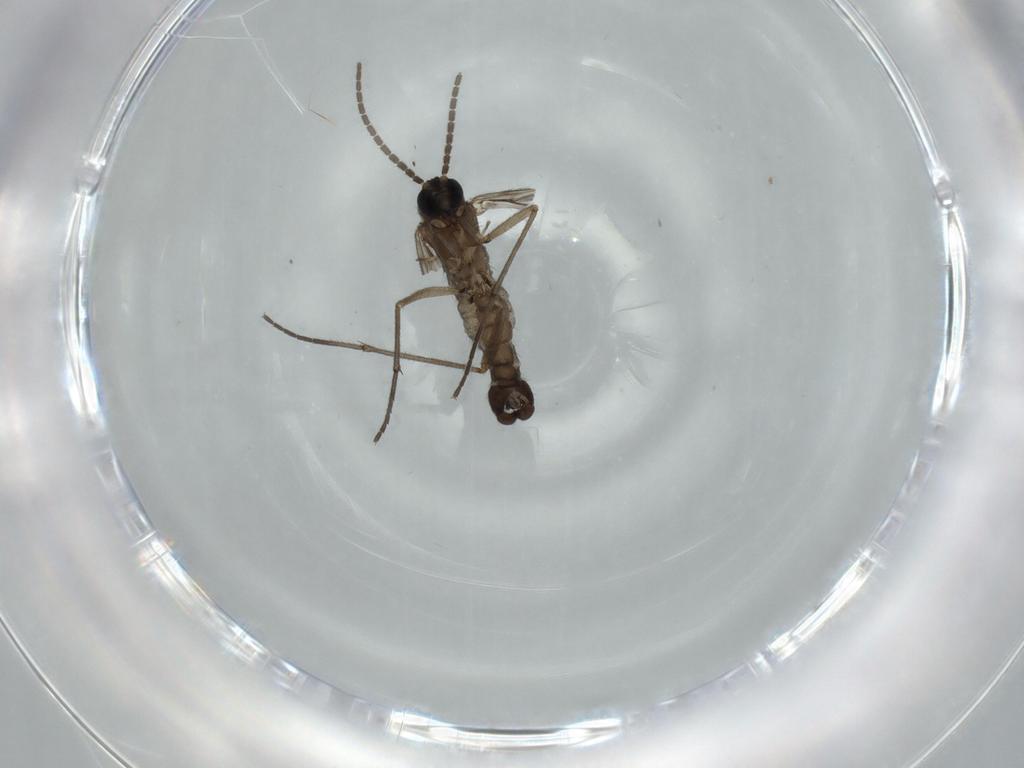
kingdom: Animalia
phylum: Arthropoda
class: Insecta
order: Diptera
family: Sciaridae
